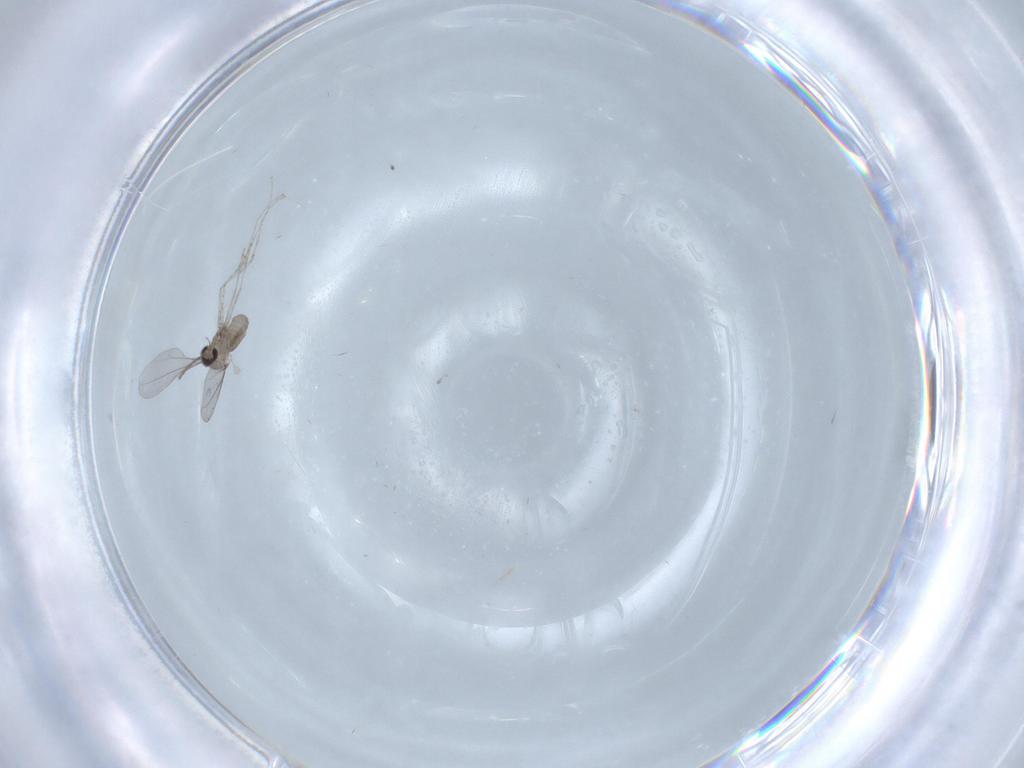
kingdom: Animalia
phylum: Arthropoda
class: Insecta
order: Diptera
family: Cecidomyiidae
